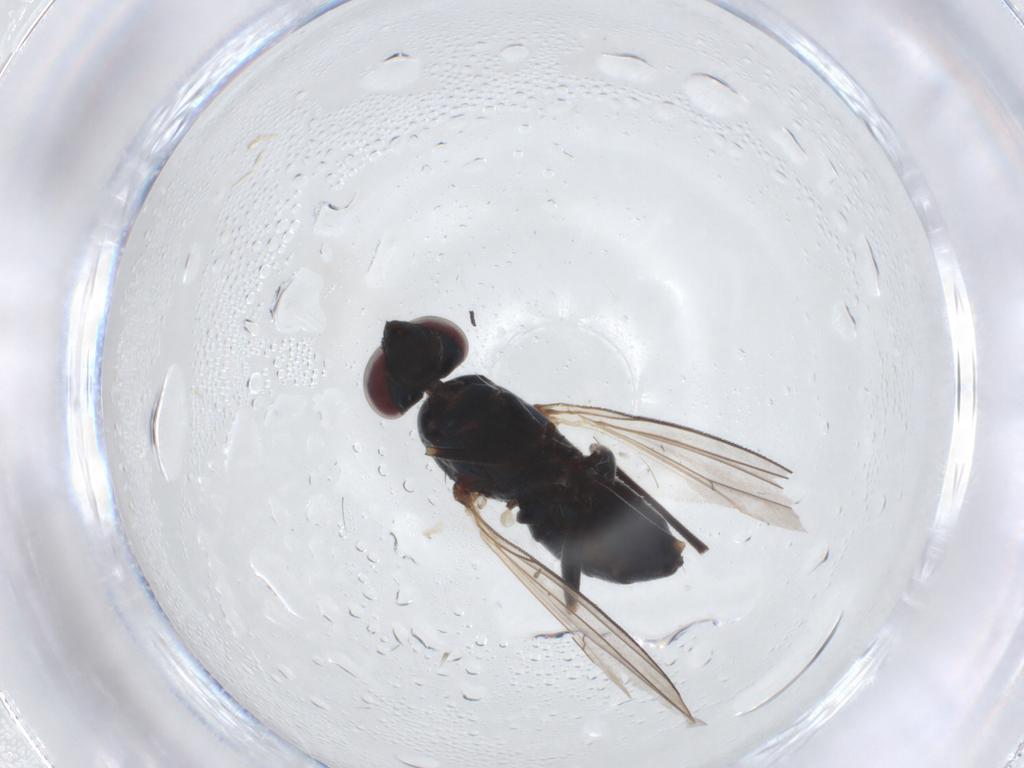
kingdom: Animalia
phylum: Arthropoda
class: Insecta
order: Diptera
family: Dolichopodidae
